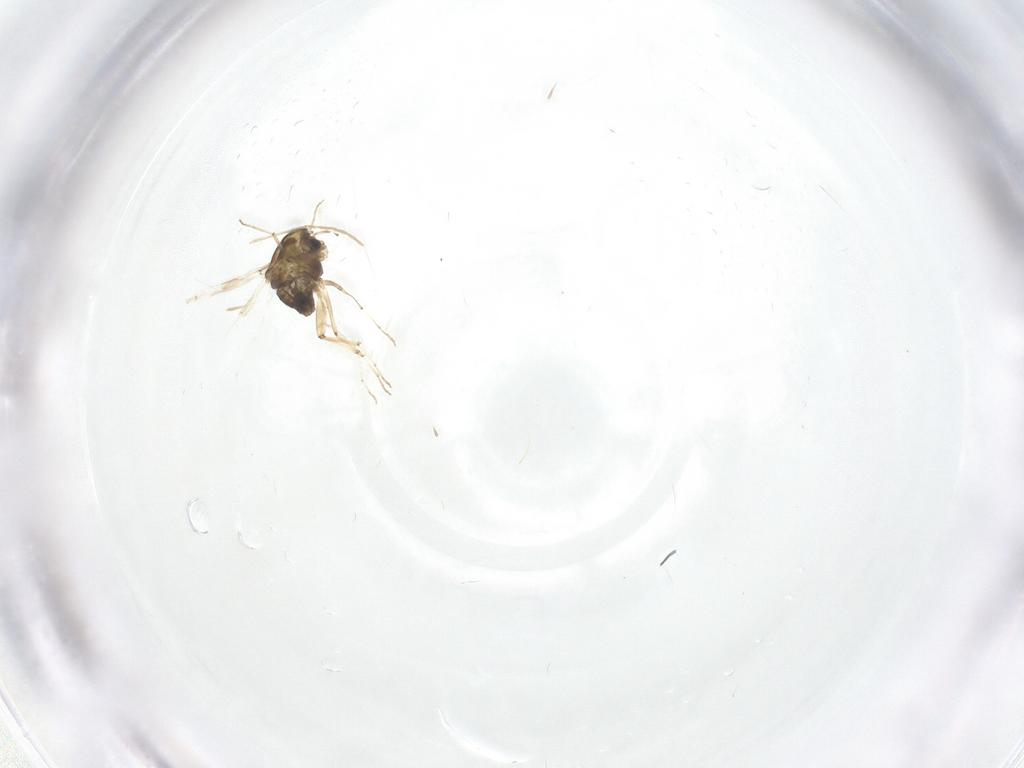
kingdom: Animalia
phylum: Arthropoda
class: Insecta
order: Diptera
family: Chironomidae
